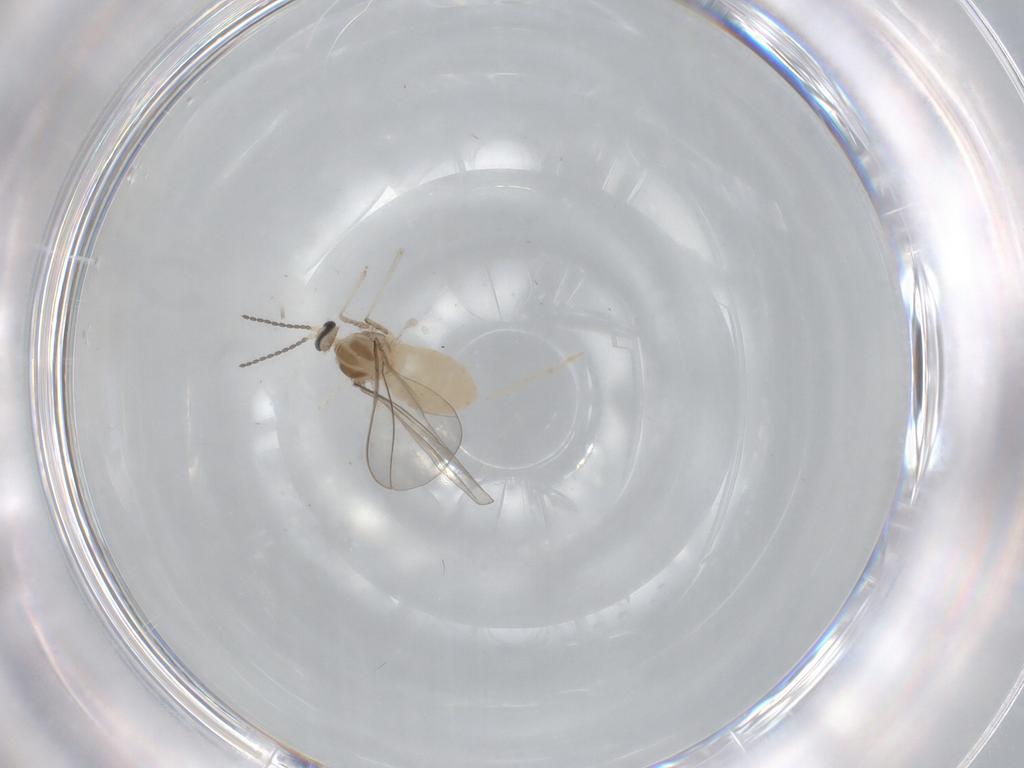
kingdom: Animalia
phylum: Arthropoda
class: Insecta
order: Diptera
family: Cecidomyiidae
